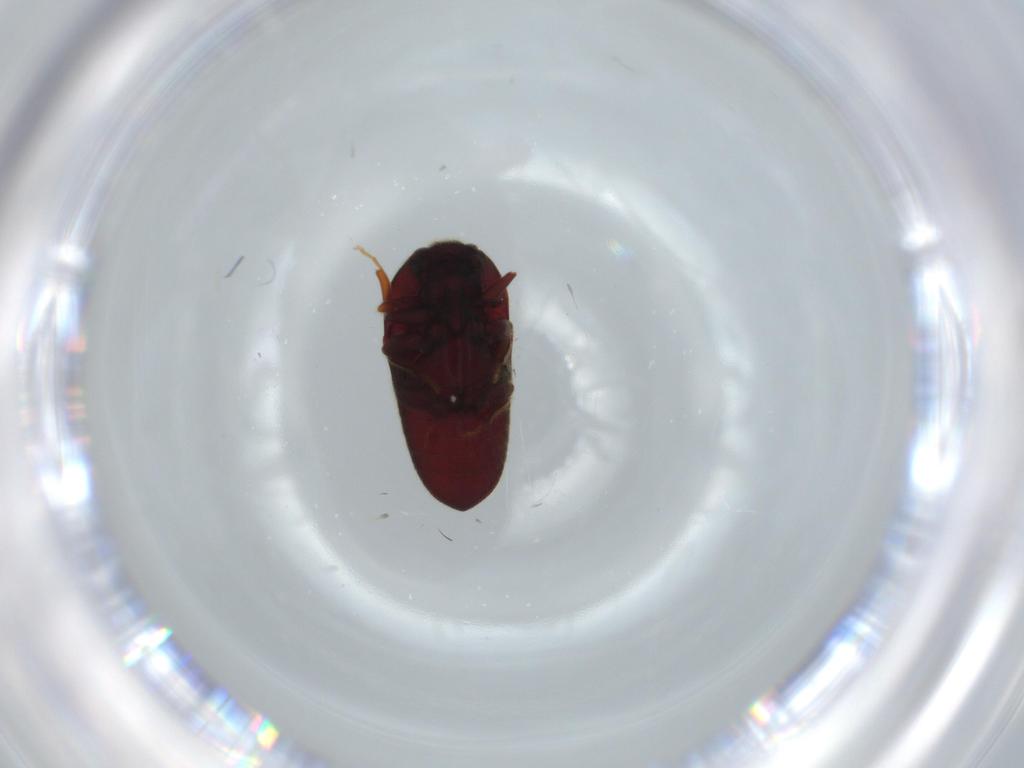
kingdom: Animalia
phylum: Arthropoda
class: Insecta
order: Coleoptera
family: Throscidae
